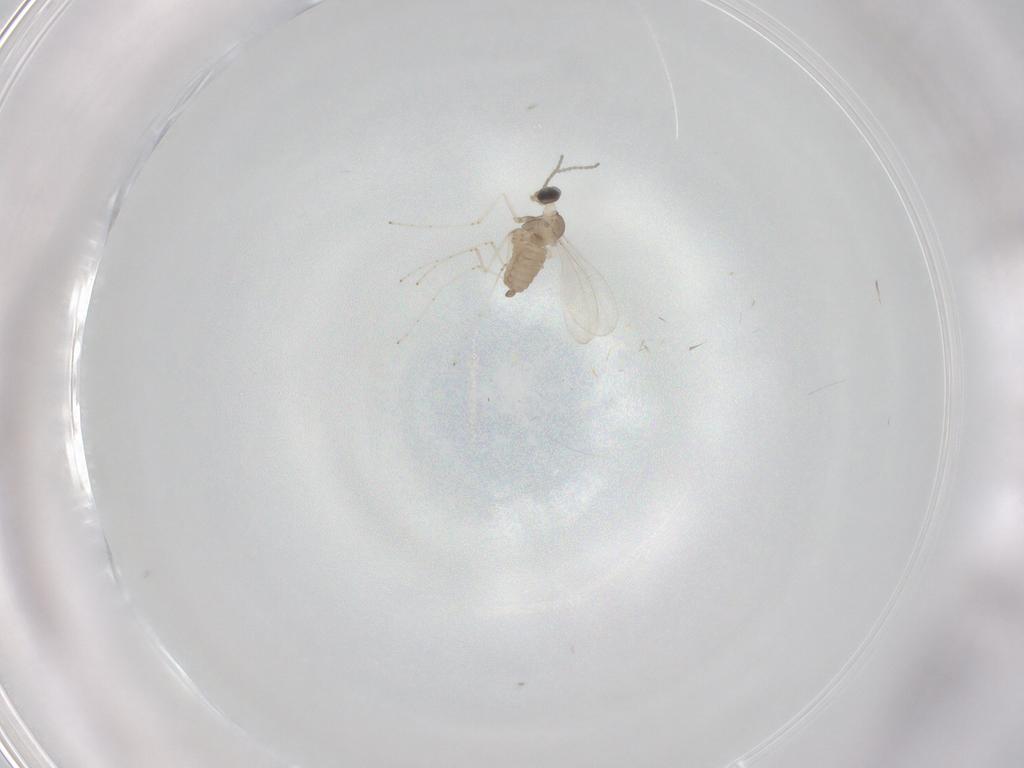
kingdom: Animalia
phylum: Arthropoda
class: Insecta
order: Diptera
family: Cecidomyiidae
